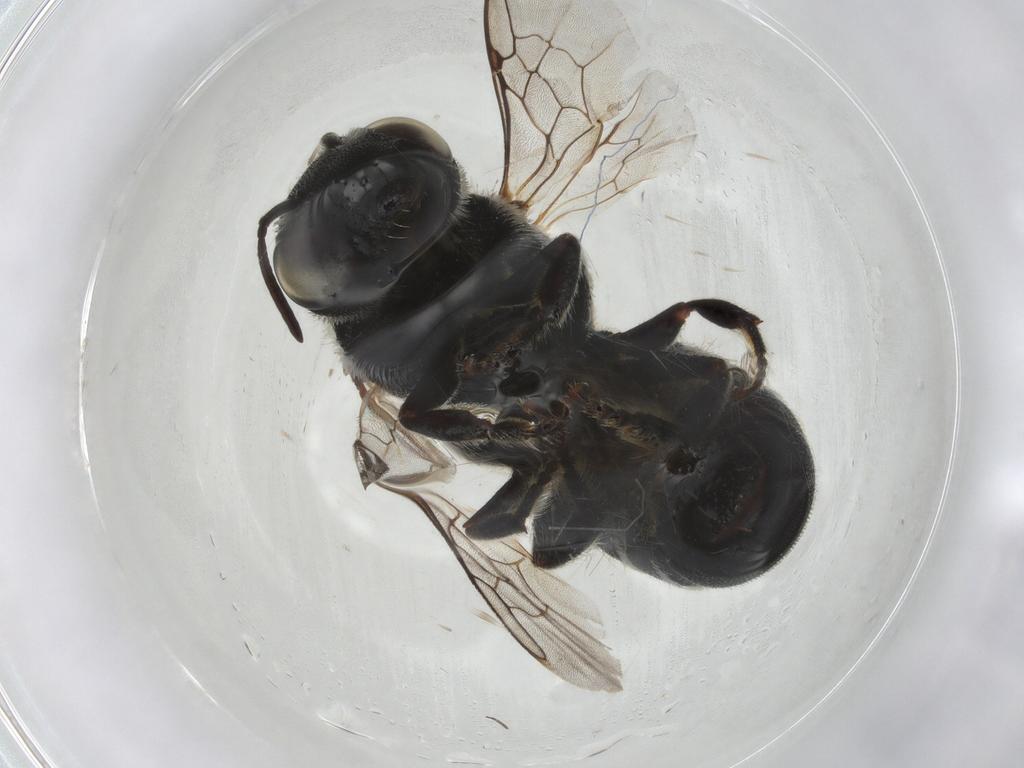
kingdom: Animalia
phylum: Arthropoda
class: Insecta
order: Hymenoptera
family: Megachilidae
